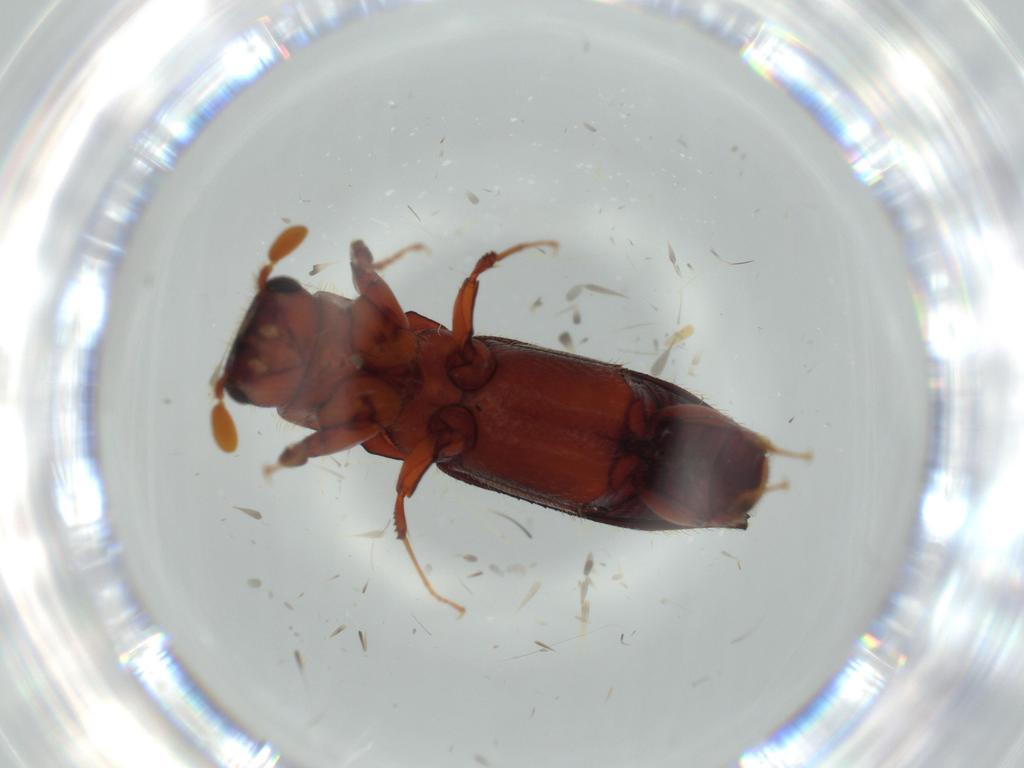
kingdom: Animalia
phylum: Arthropoda
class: Insecta
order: Coleoptera
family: Curculionidae
